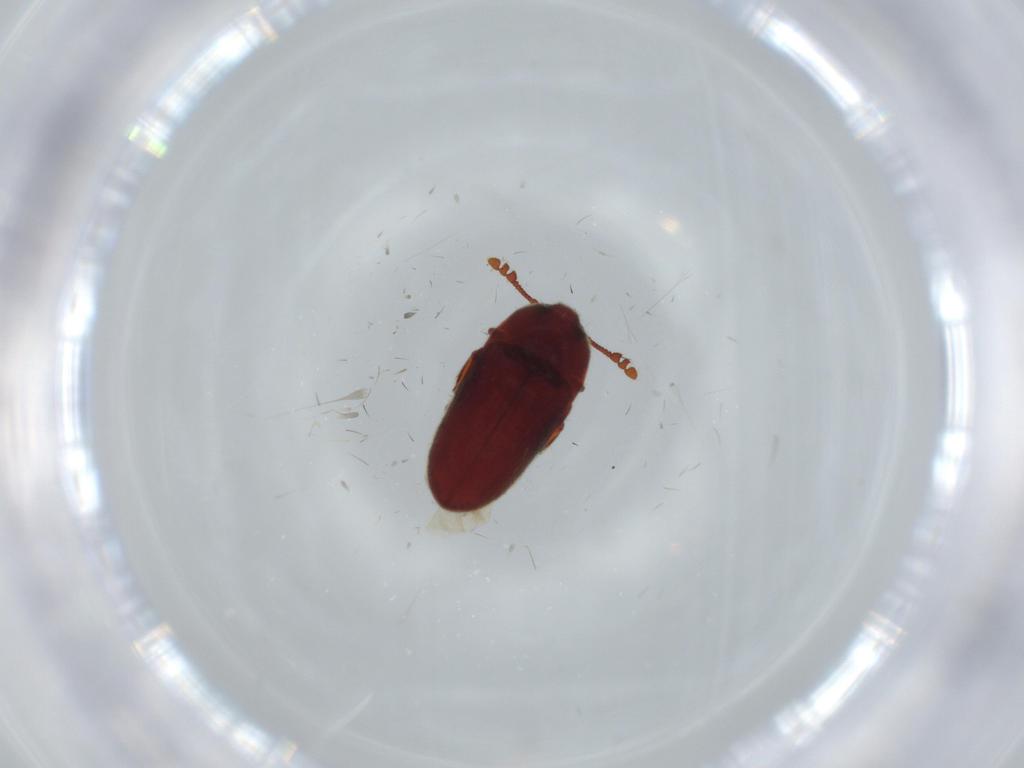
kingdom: Animalia
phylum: Arthropoda
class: Insecta
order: Coleoptera
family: Throscidae
